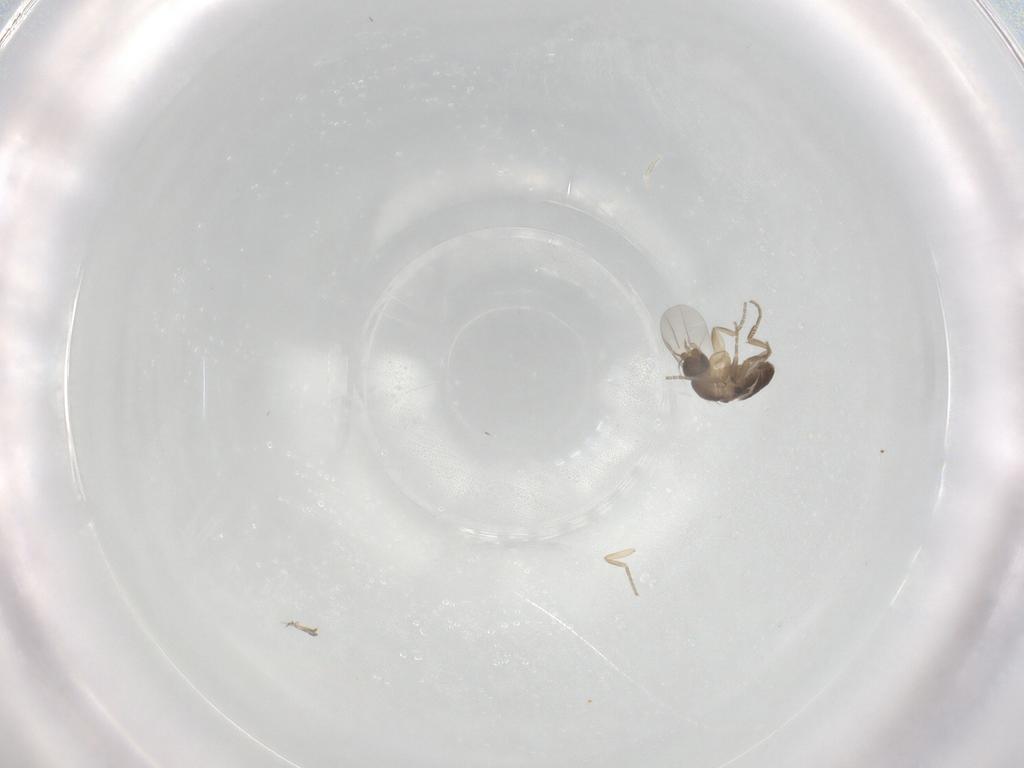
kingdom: Animalia
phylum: Arthropoda
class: Insecta
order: Diptera
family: Phoridae
